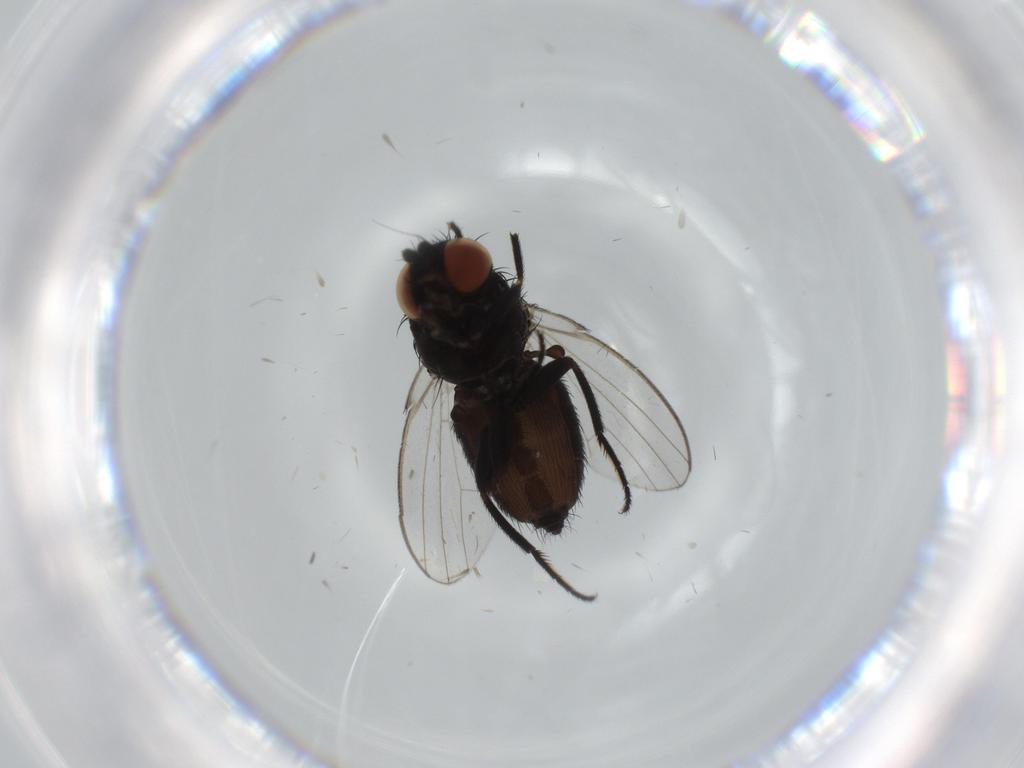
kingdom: Animalia
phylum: Arthropoda
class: Insecta
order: Diptera
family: Milichiidae
